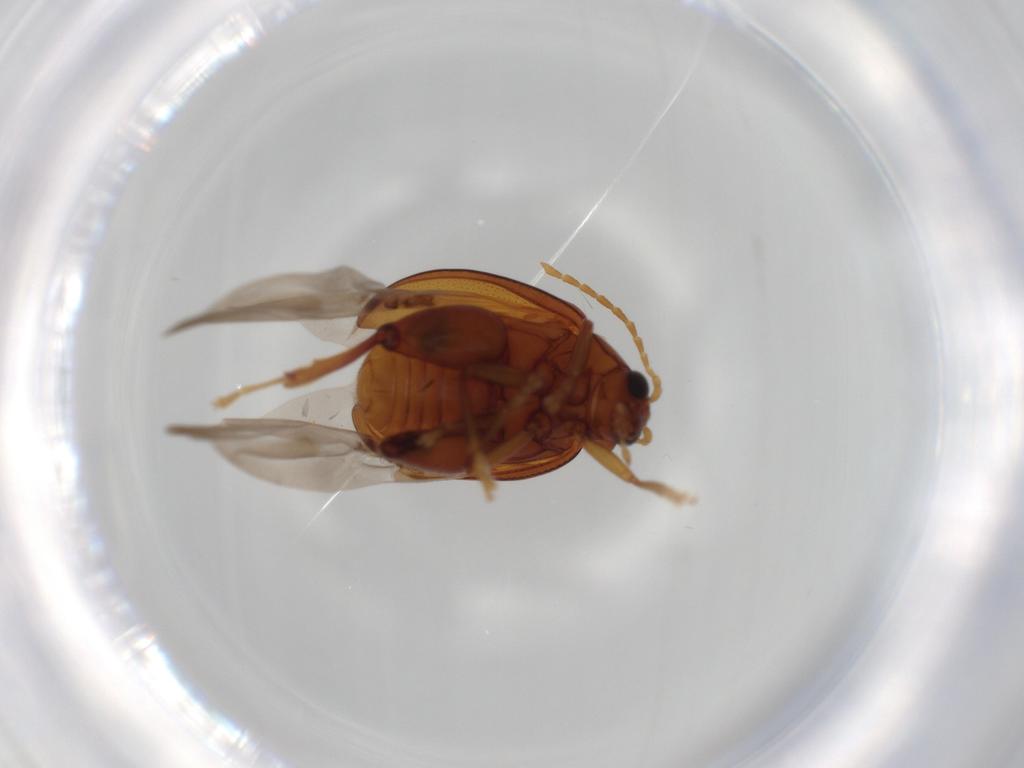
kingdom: Animalia
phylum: Arthropoda
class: Insecta
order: Coleoptera
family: Chrysomelidae
